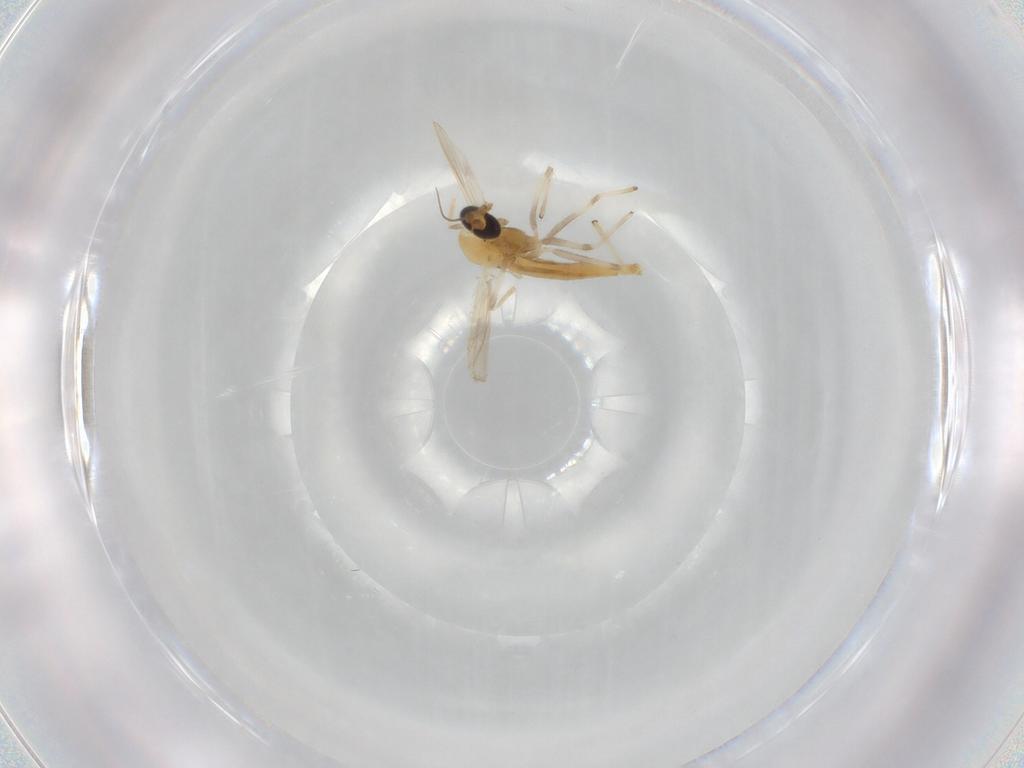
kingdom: Animalia
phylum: Arthropoda
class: Insecta
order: Diptera
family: Chironomidae
